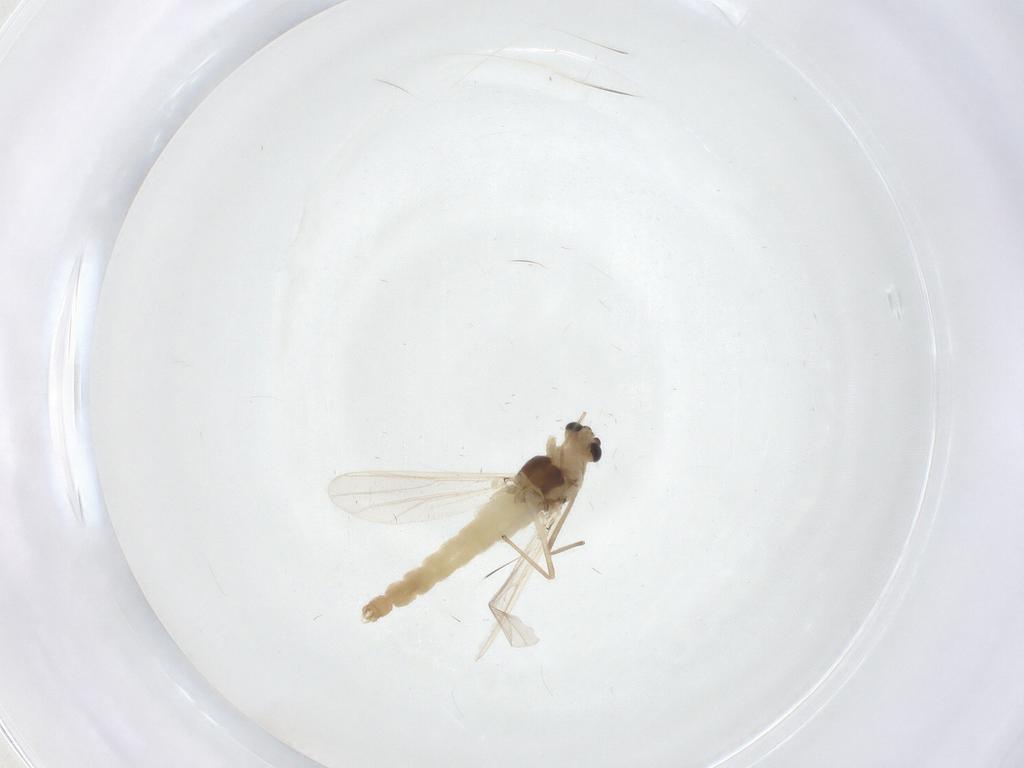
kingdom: Animalia
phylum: Arthropoda
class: Insecta
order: Diptera
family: Chironomidae
